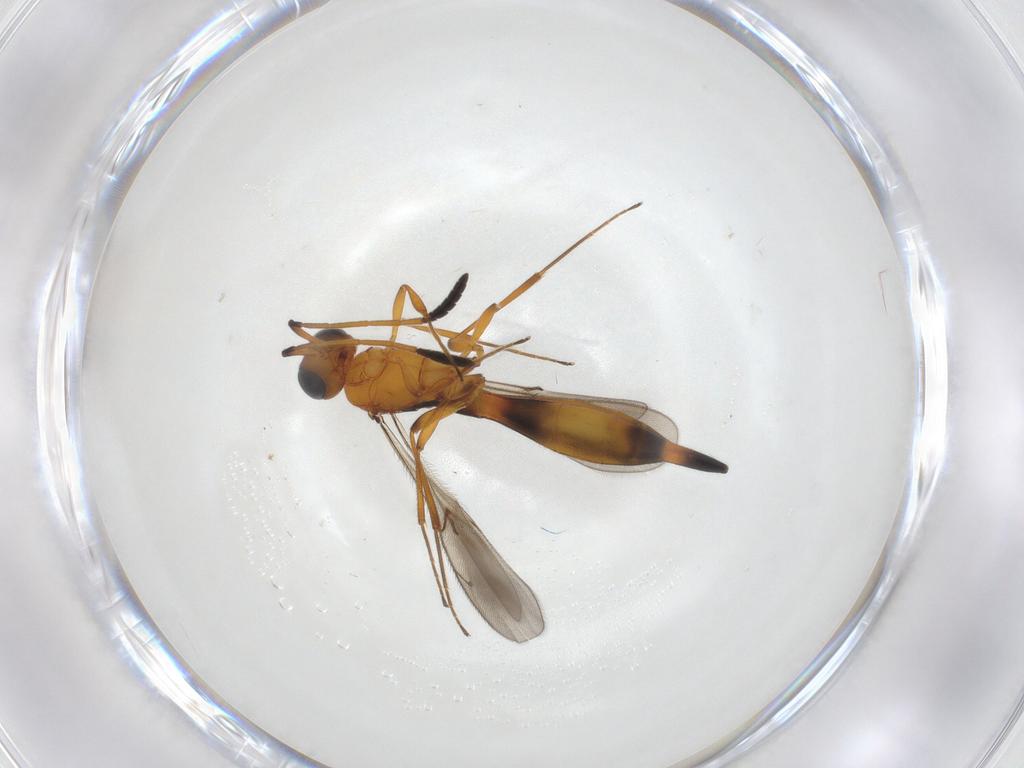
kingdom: Animalia
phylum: Arthropoda
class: Insecta
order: Hymenoptera
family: Scelionidae
